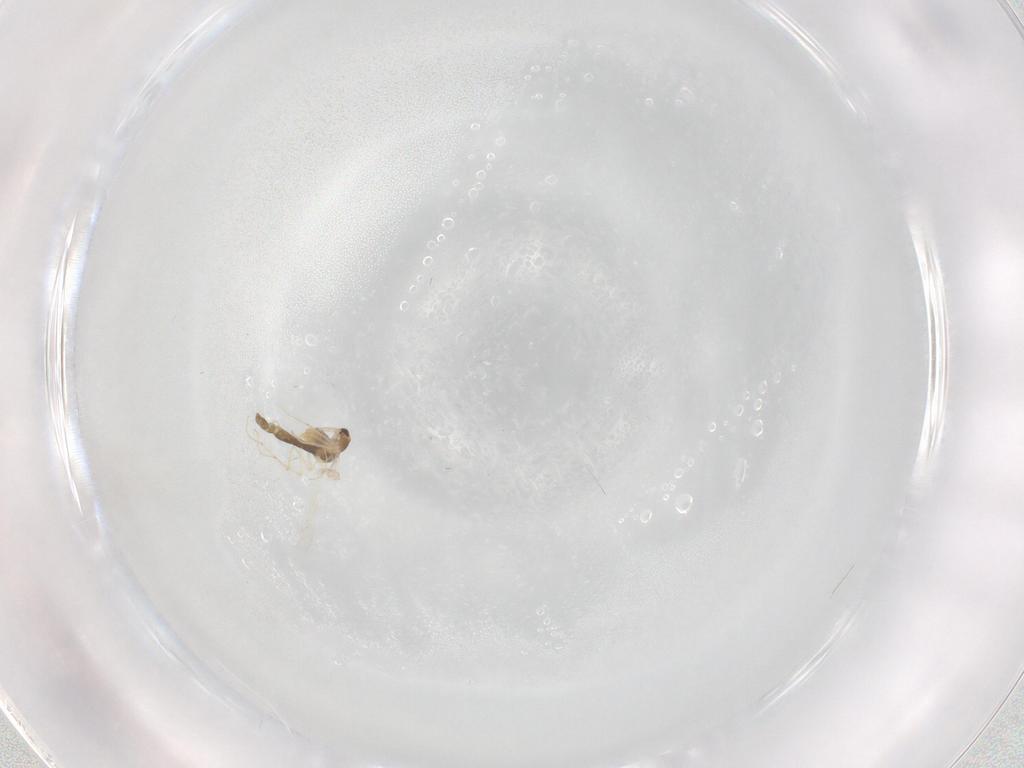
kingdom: Animalia
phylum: Arthropoda
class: Insecta
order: Diptera
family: Chironomidae
